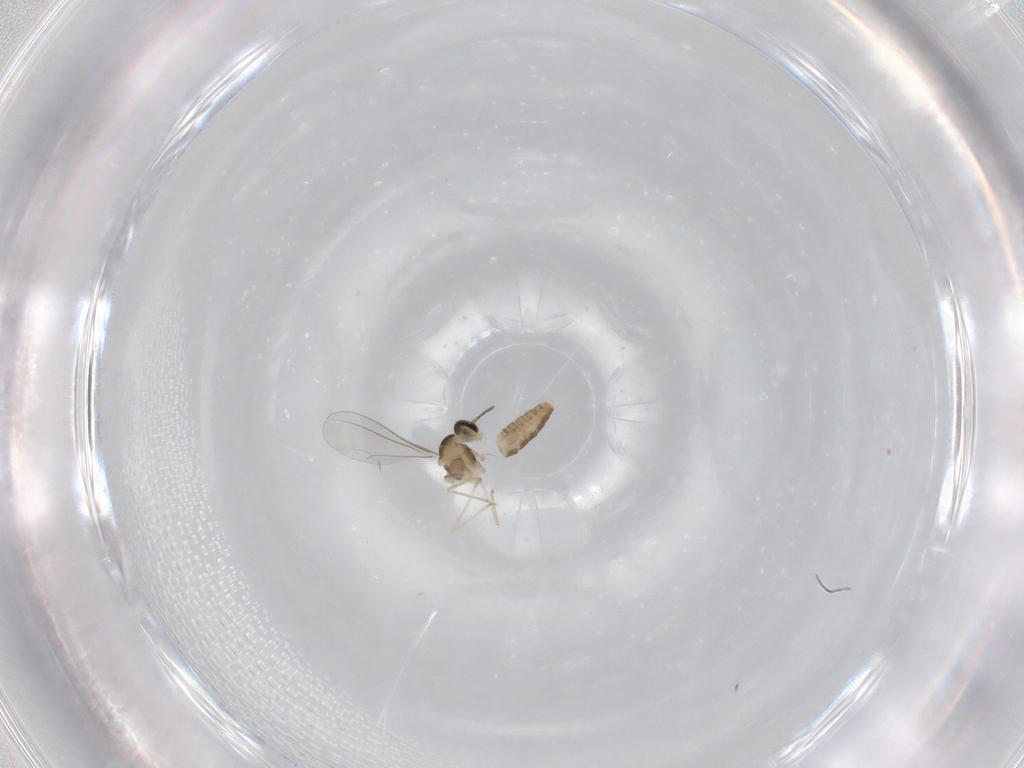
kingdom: Animalia
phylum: Arthropoda
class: Insecta
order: Diptera
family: Cecidomyiidae
